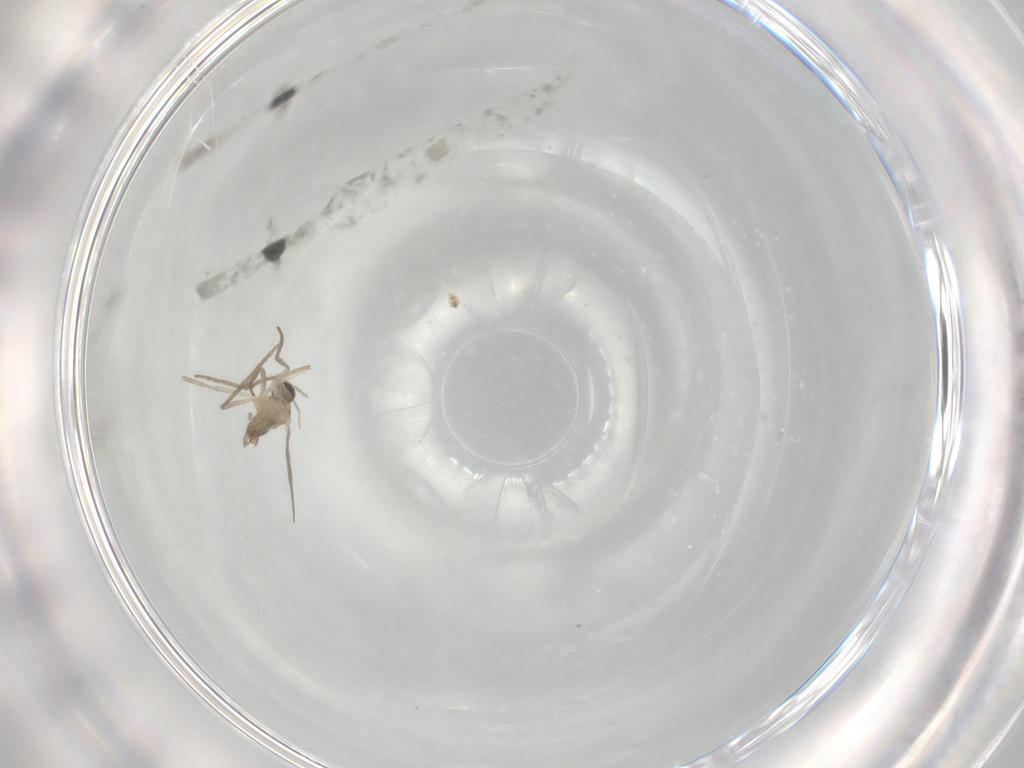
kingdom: Animalia
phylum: Arthropoda
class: Insecta
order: Diptera
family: Cecidomyiidae
